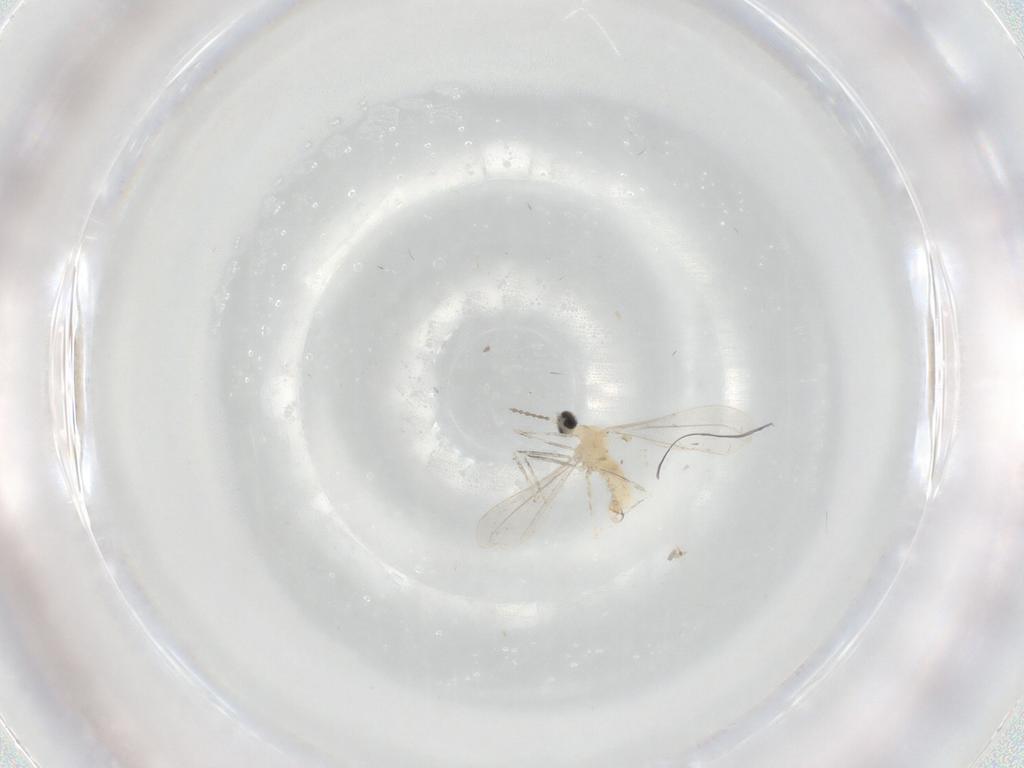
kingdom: Animalia
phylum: Arthropoda
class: Insecta
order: Diptera
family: Cecidomyiidae
